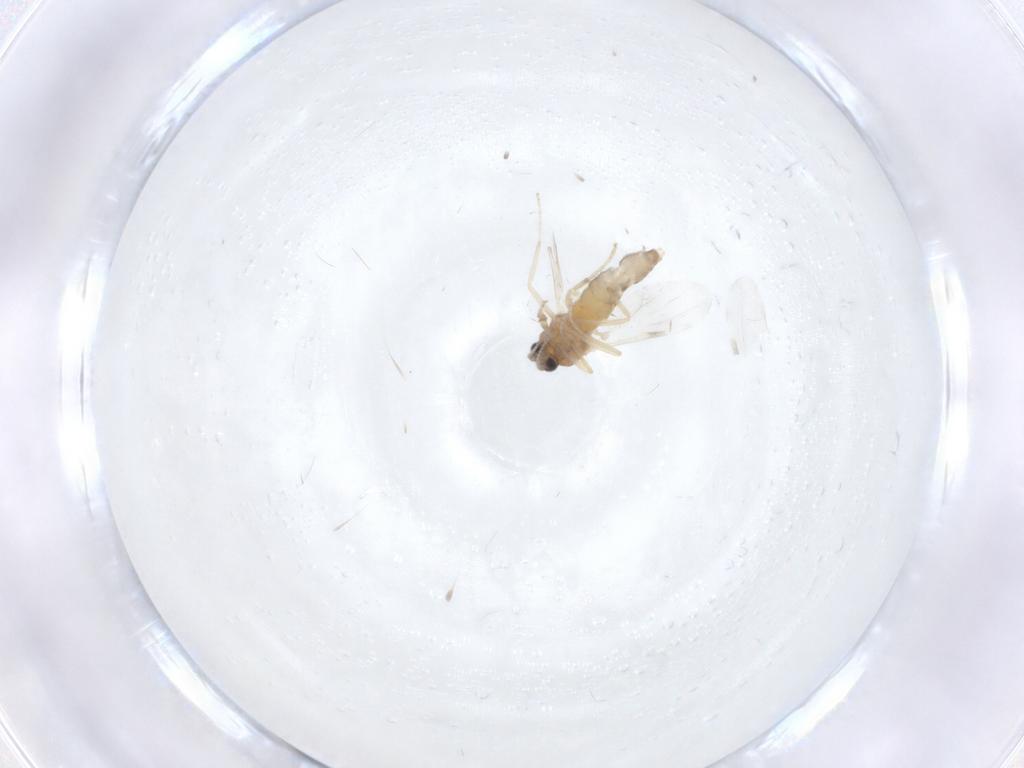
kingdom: Animalia
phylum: Arthropoda
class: Insecta
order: Diptera
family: Ceratopogonidae
